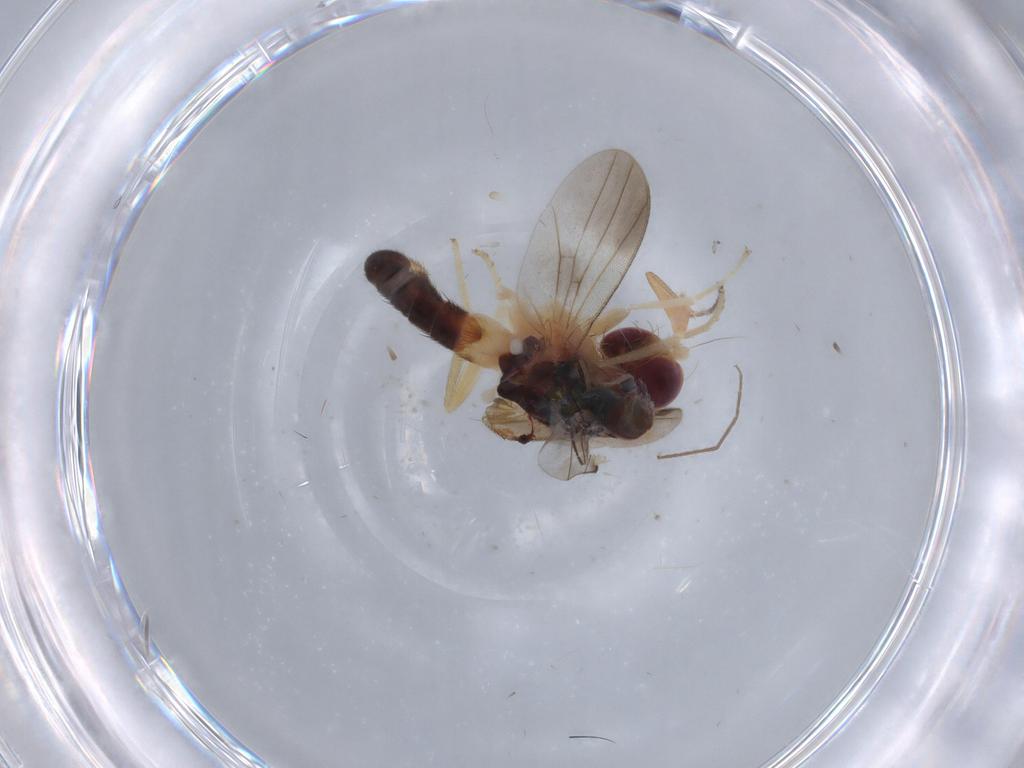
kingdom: Animalia
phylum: Arthropoda
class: Insecta
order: Diptera
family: Clusiidae
